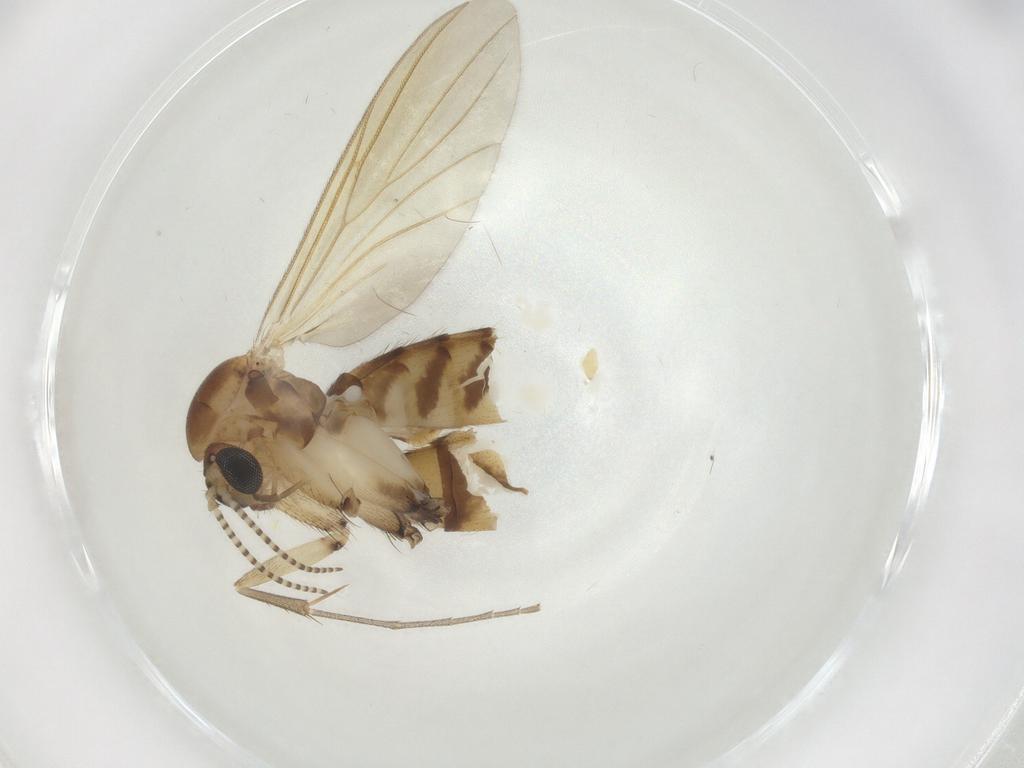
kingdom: Animalia
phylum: Arthropoda
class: Insecta
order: Diptera
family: Mycetophilidae
